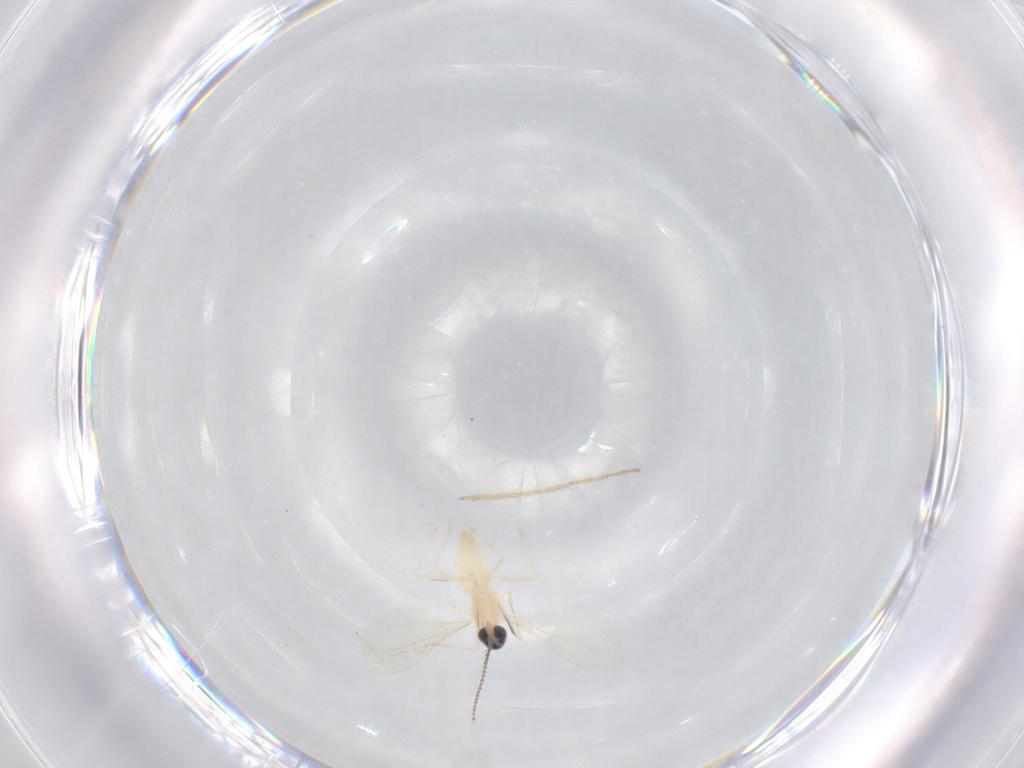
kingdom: Animalia
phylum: Arthropoda
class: Insecta
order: Diptera
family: Cecidomyiidae
